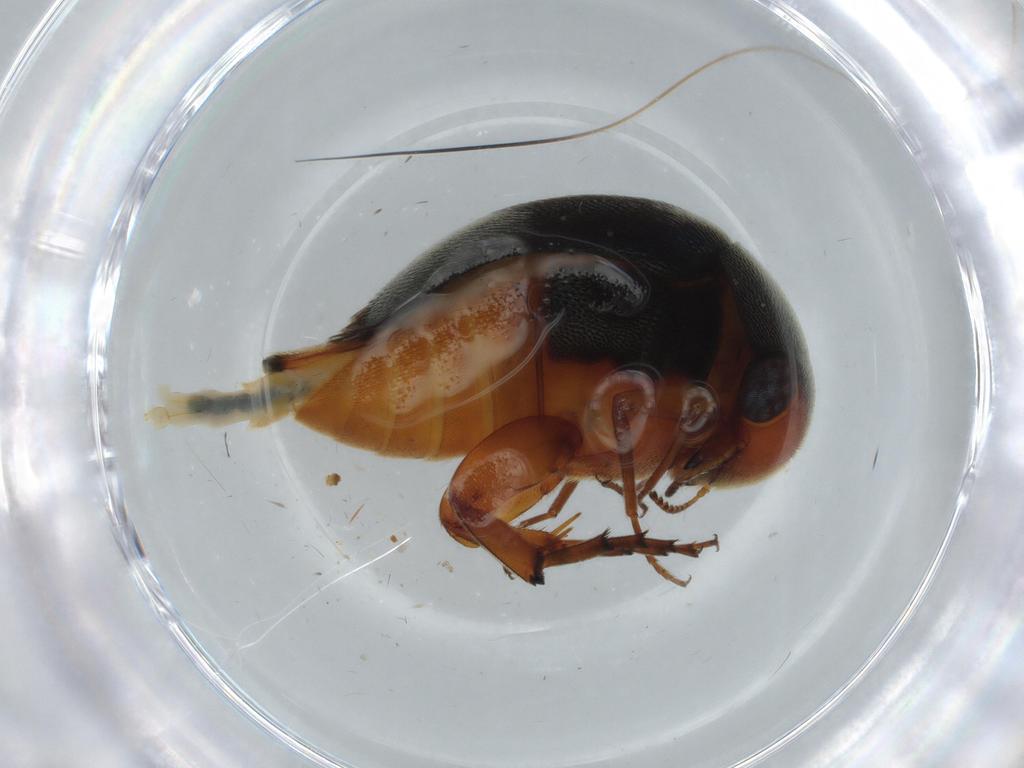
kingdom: Animalia
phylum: Arthropoda
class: Insecta
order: Coleoptera
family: Mordellidae
